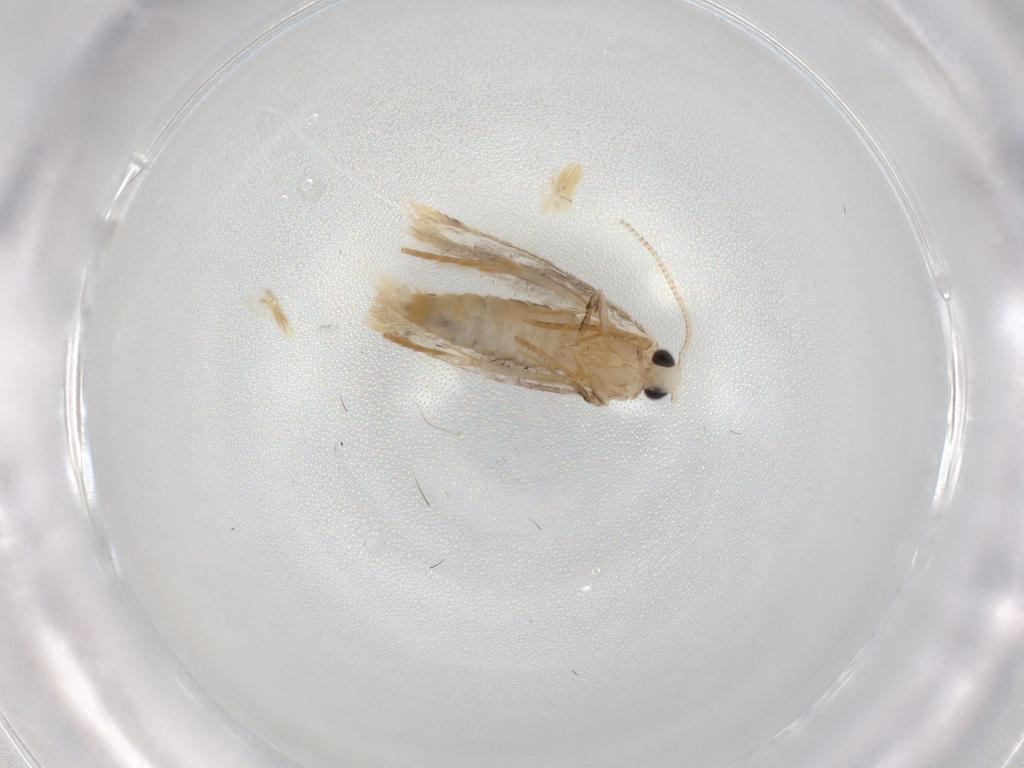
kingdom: Animalia
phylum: Arthropoda
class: Insecta
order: Lepidoptera
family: Tineidae
